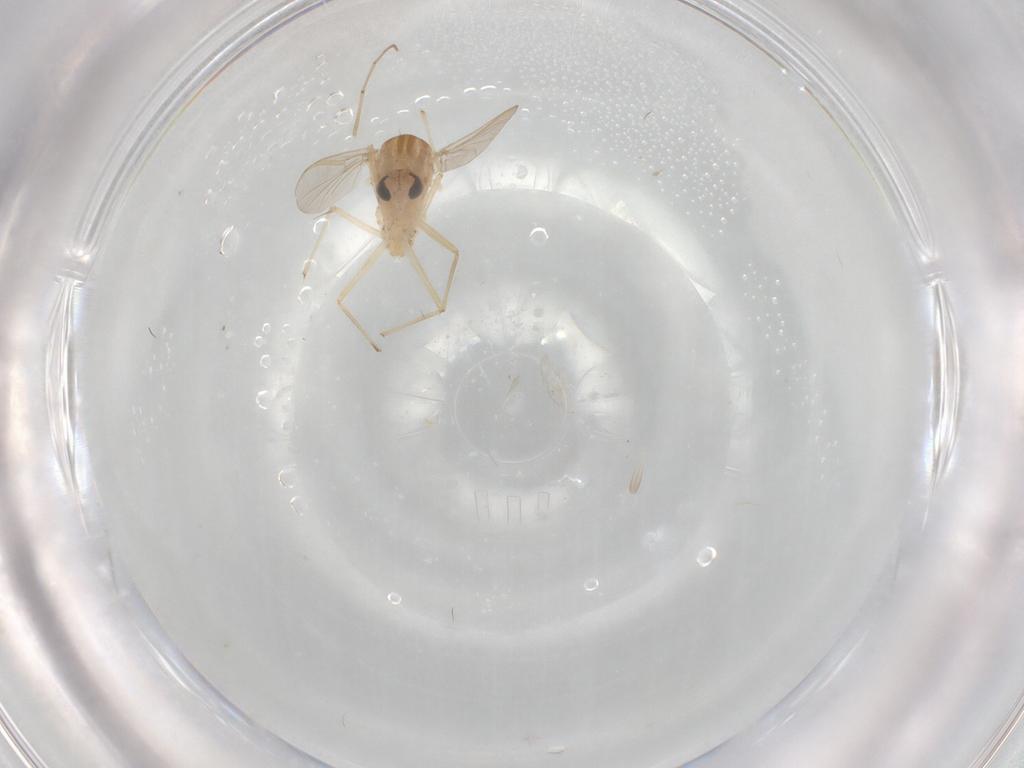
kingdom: Animalia
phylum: Arthropoda
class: Insecta
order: Diptera
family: Chironomidae
